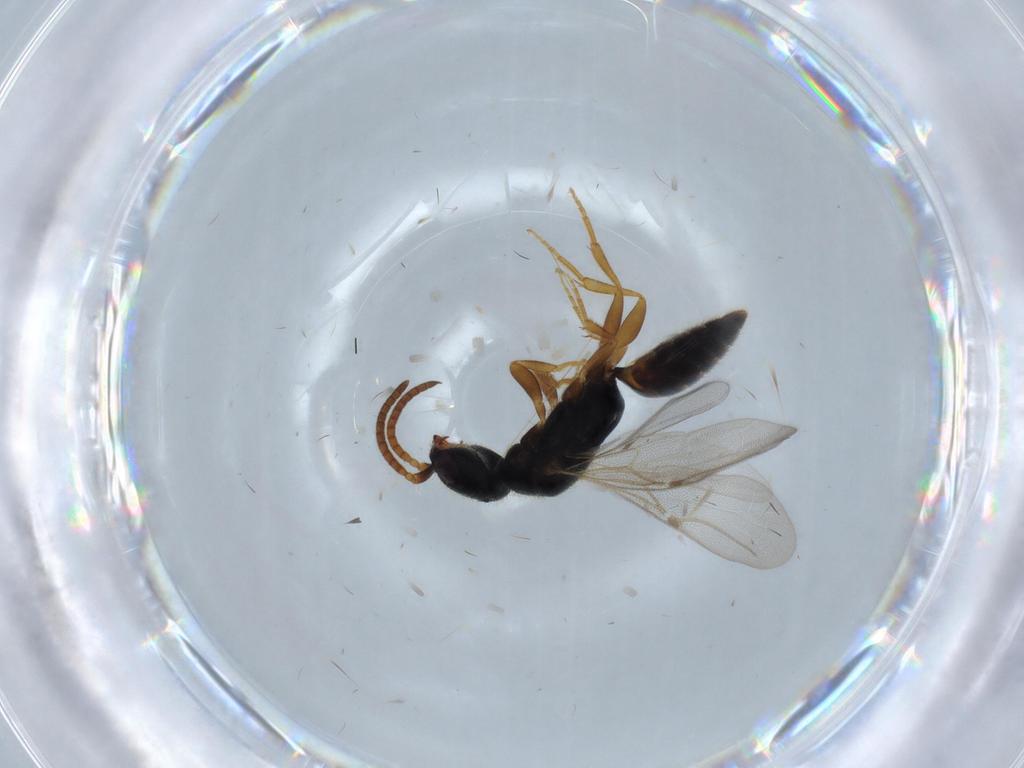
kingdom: Animalia
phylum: Arthropoda
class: Insecta
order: Hymenoptera
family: Bethylidae
